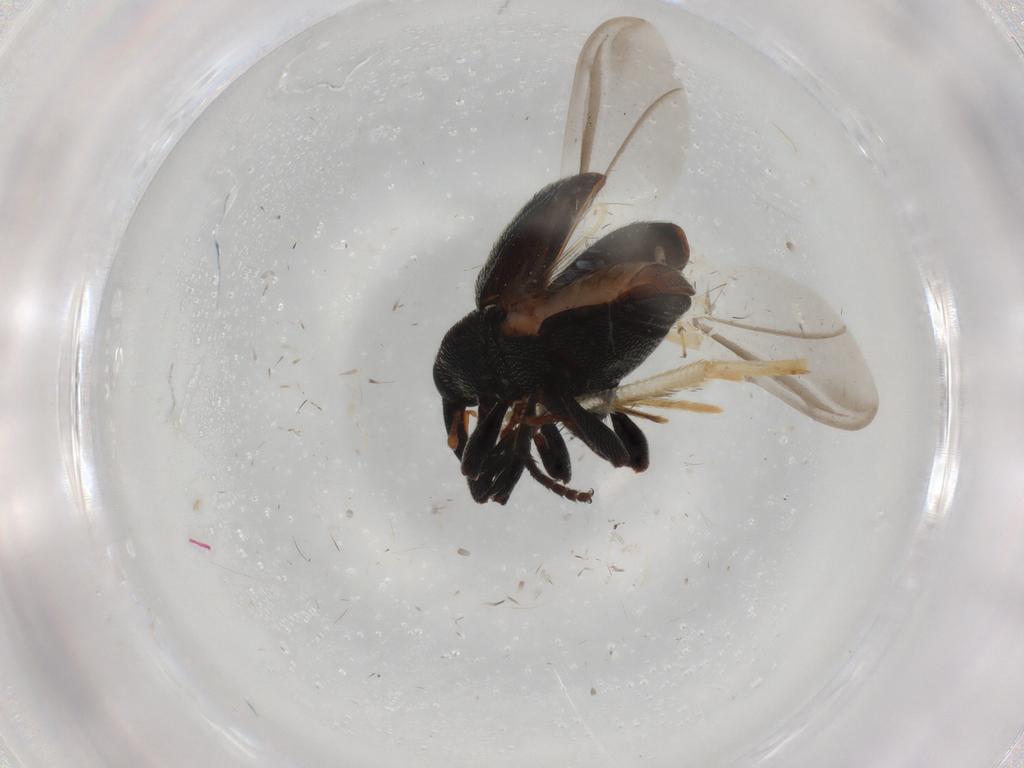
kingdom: Animalia
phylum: Arthropoda
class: Insecta
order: Coleoptera
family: Curculionidae
